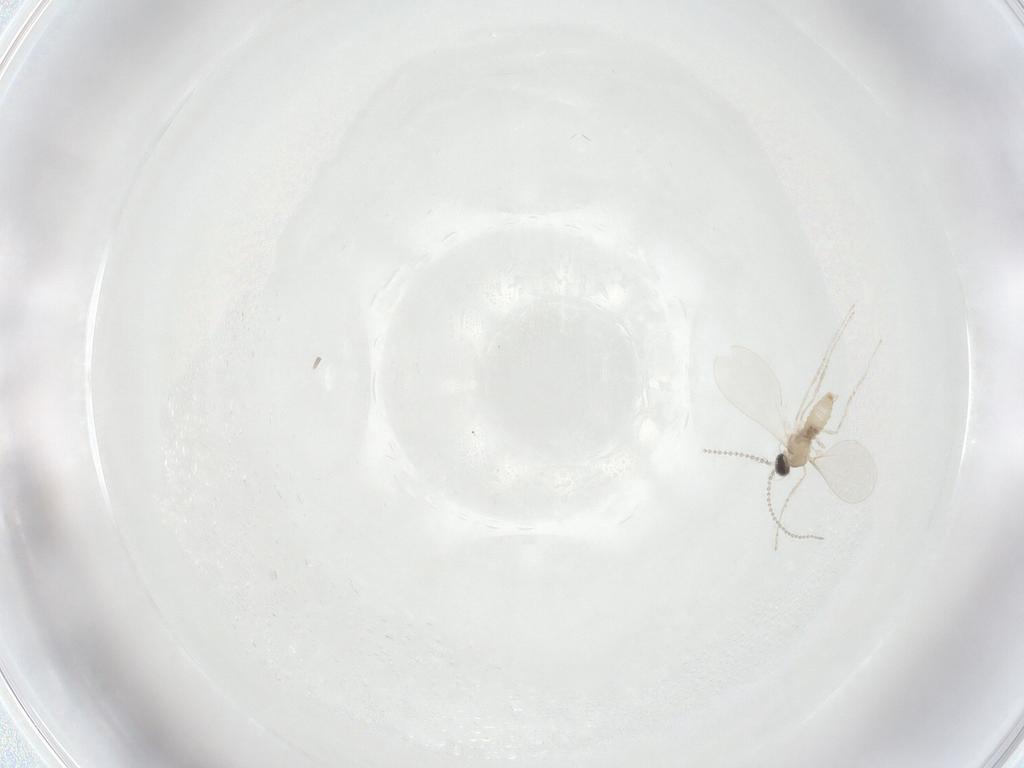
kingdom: Animalia
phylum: Arthropoda
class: Insecta
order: Diptera
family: Cecidomyiidae
